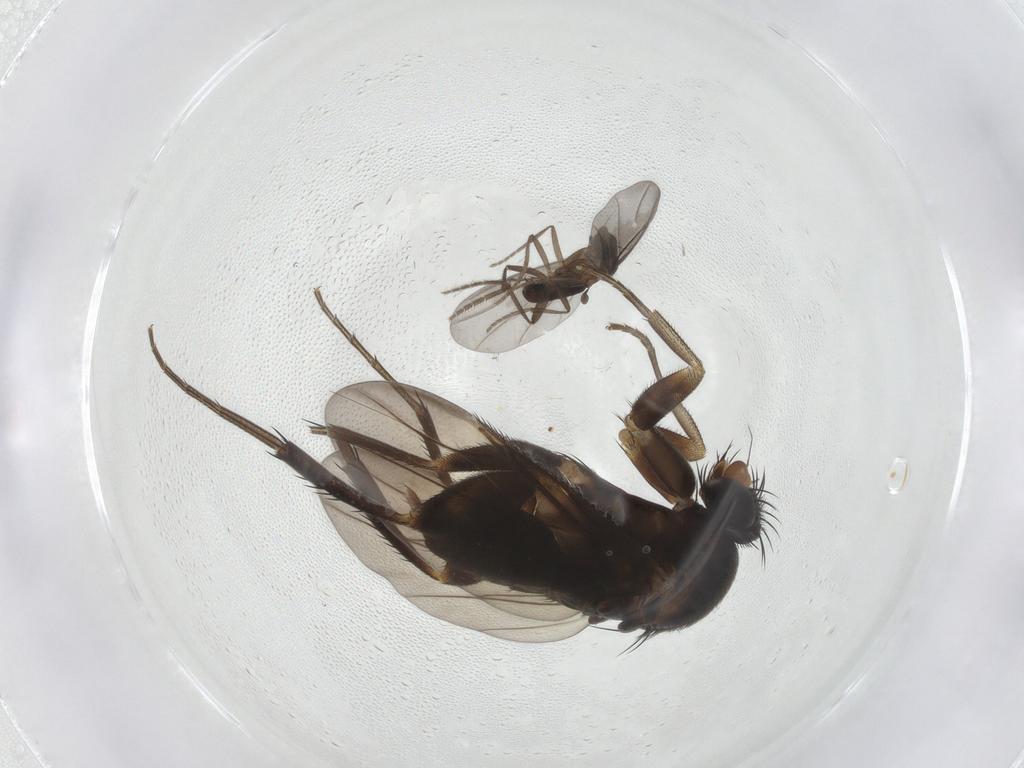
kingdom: Animalia
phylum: Arthropoda
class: Insecta
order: Diptera
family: Phoridae
